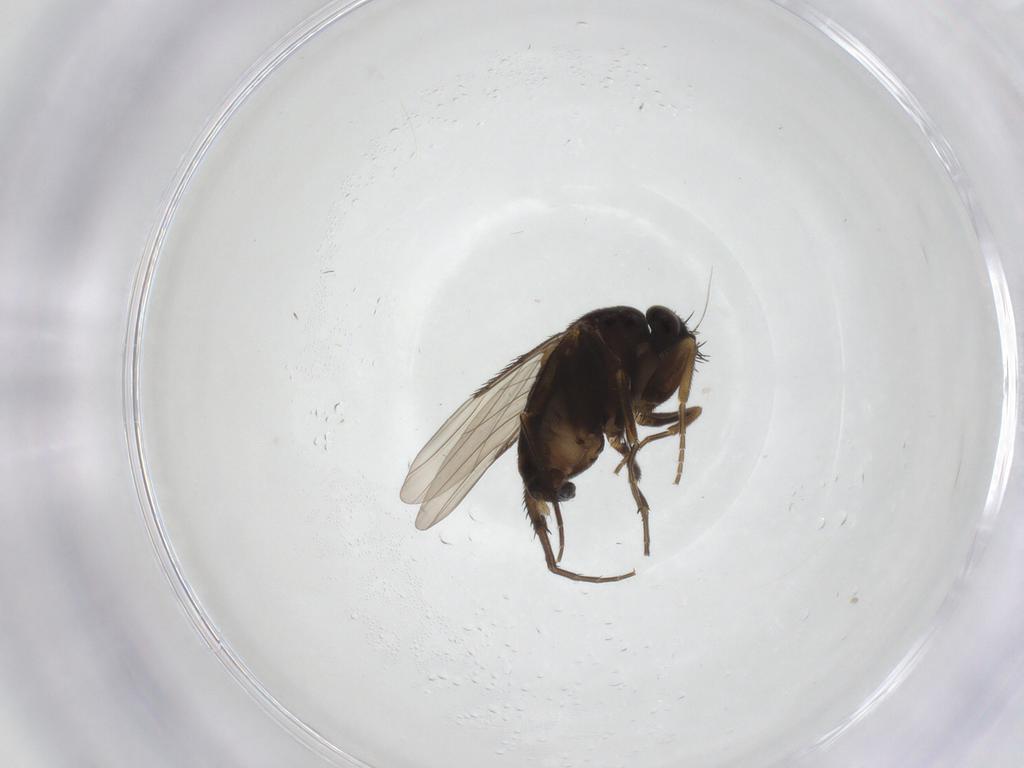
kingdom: Animalia
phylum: Arthropoda
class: Insecta
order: Diptera
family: Phoridae
